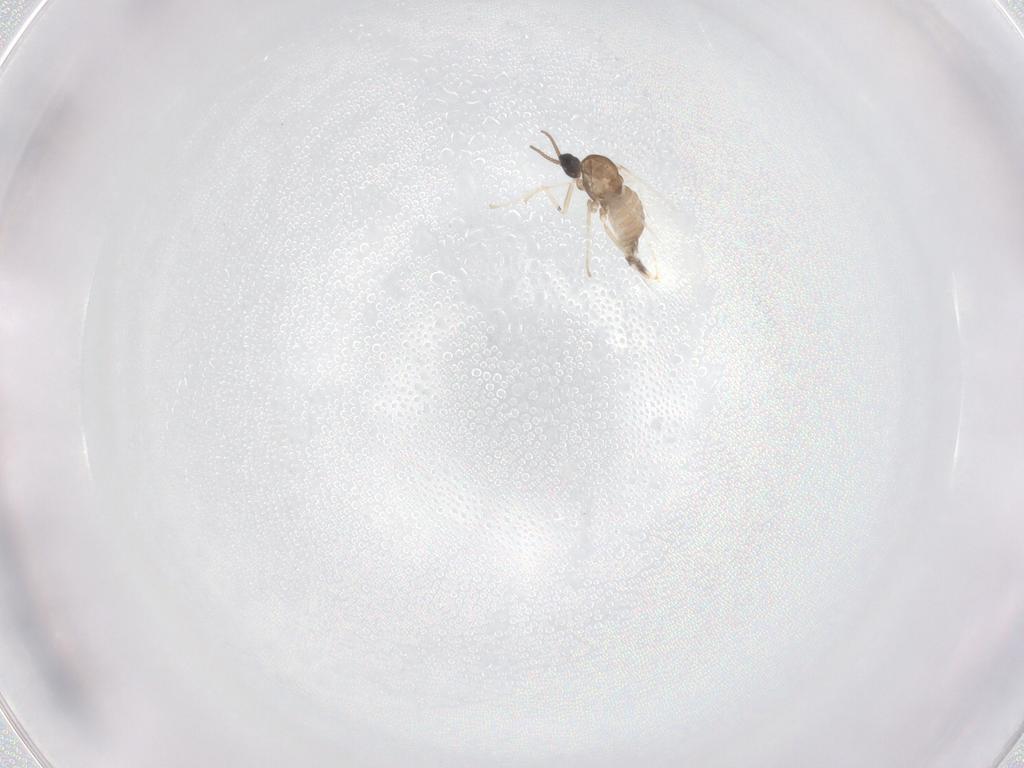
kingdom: Animalia
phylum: Arthropoda
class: Insecta
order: Diptera
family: Cecidomyiidae
